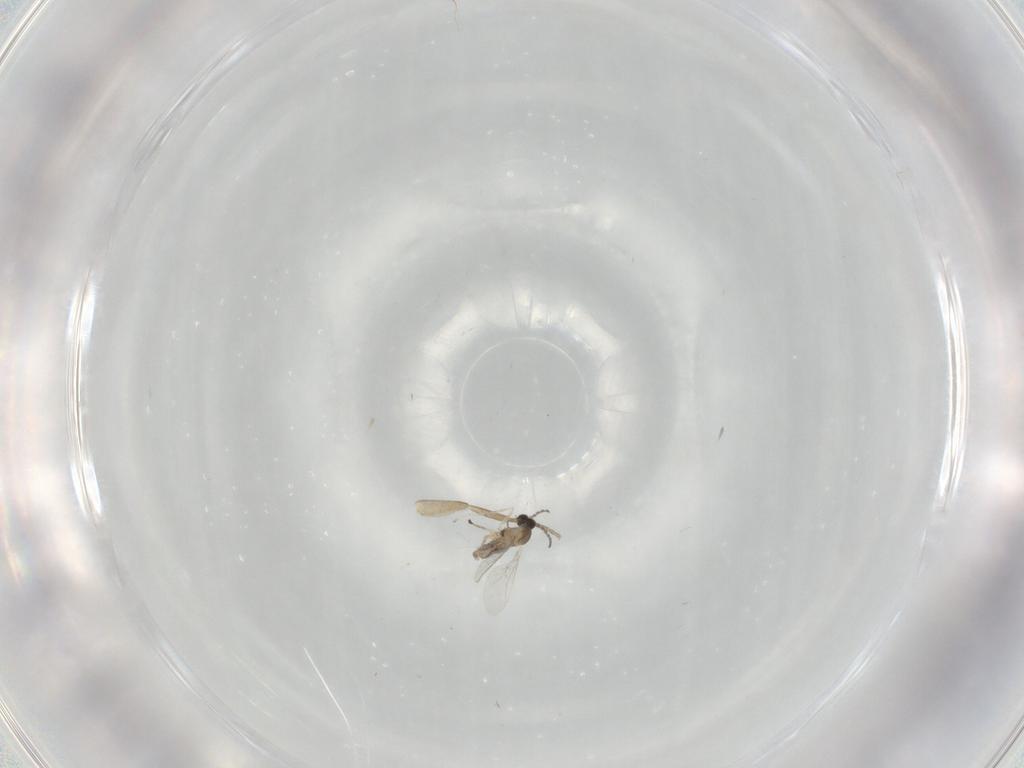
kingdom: Animalia
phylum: Arthropoda
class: Insecta
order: Diptera
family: Cecidomyiidae
